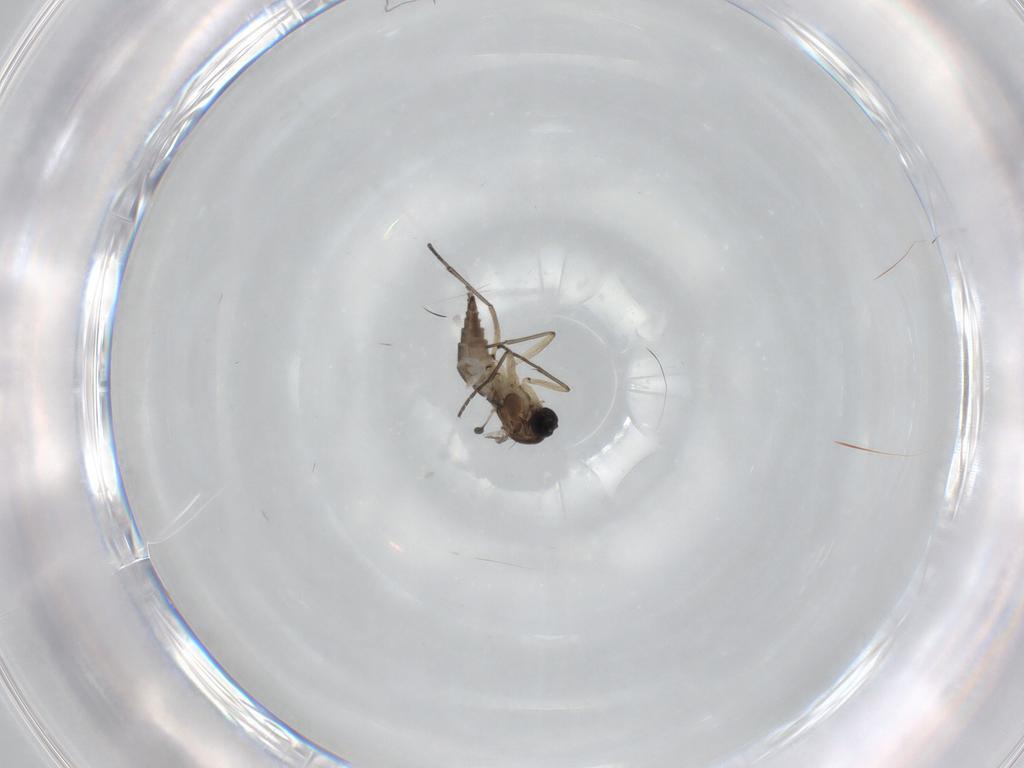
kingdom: Animalia
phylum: Arthropoda
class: Insecta
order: Diptera
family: Sciaridae
